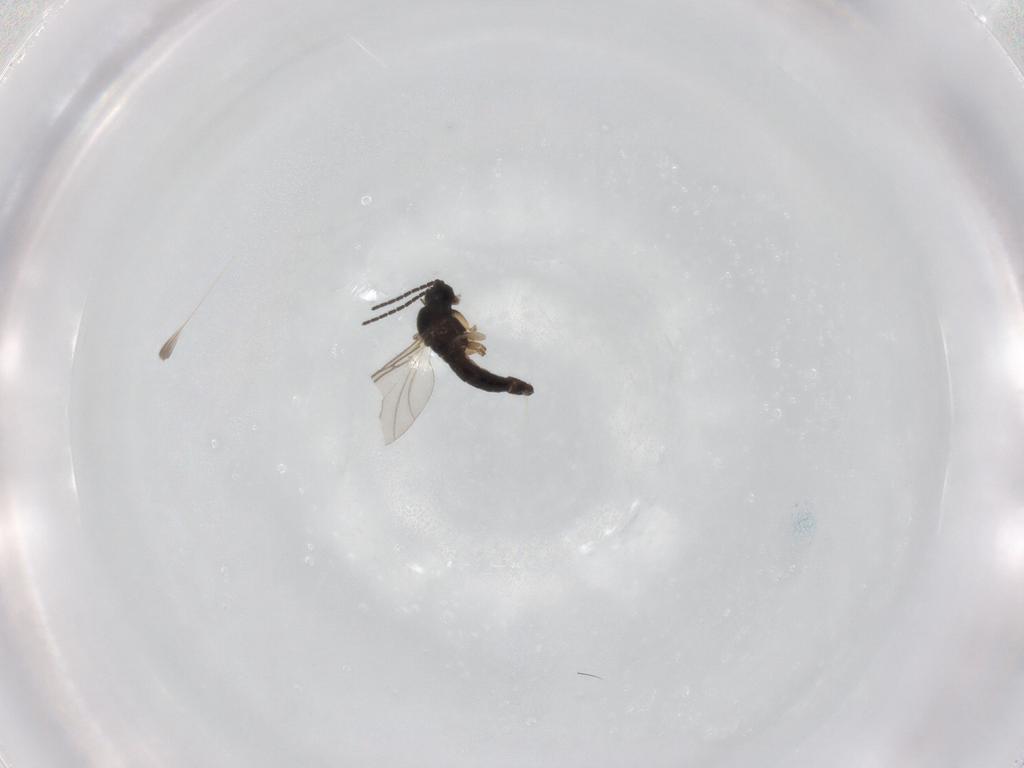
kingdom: Animalia
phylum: Arthropoda
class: Insecta
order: Diptera
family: Sciaridae
